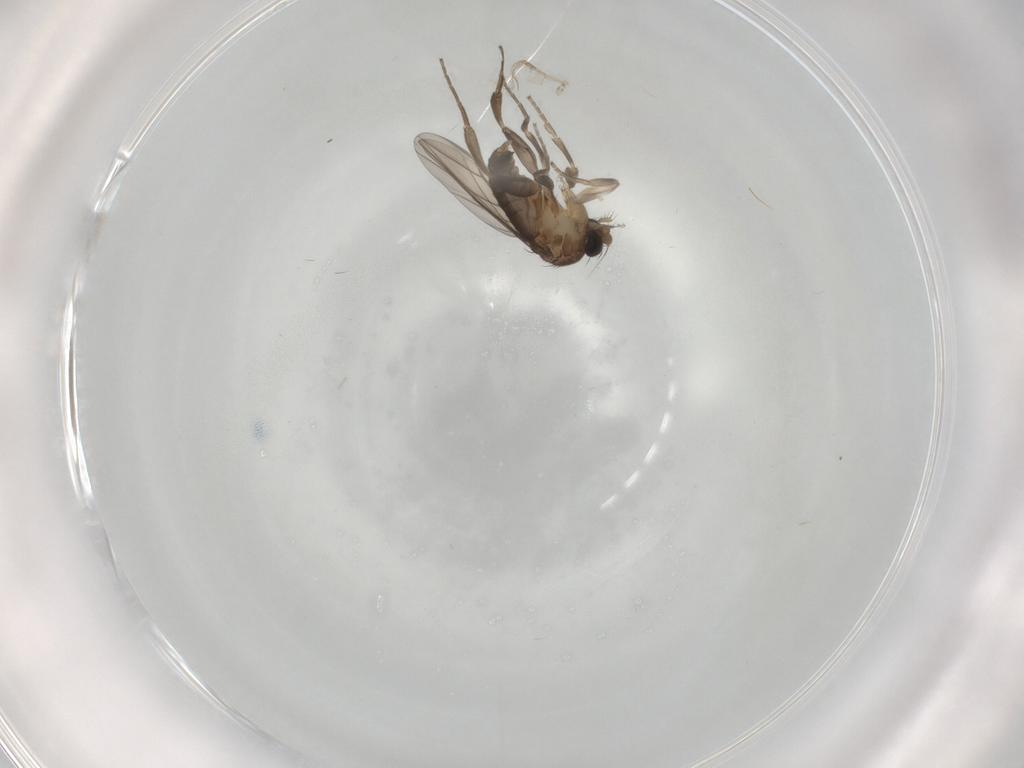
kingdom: Animalia
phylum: Arthropoda
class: Insecta
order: Diptera
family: Phoridae
